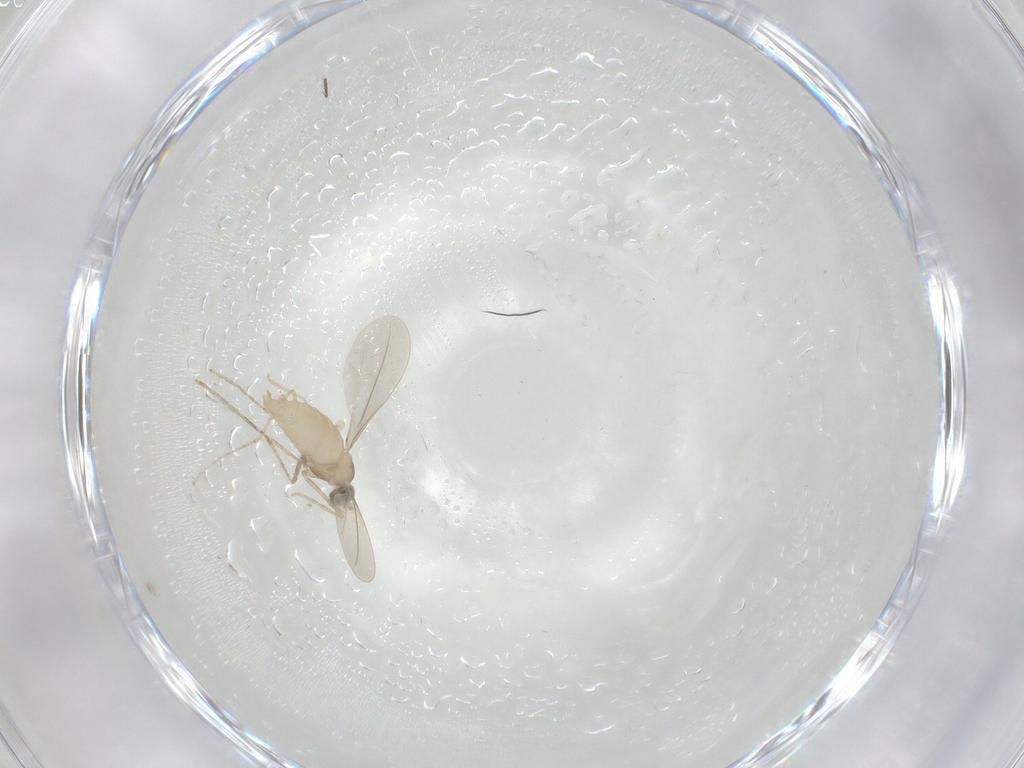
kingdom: Animalia
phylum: Arthropoda
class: Insecta
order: Diptera
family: Cecidomyiidae
